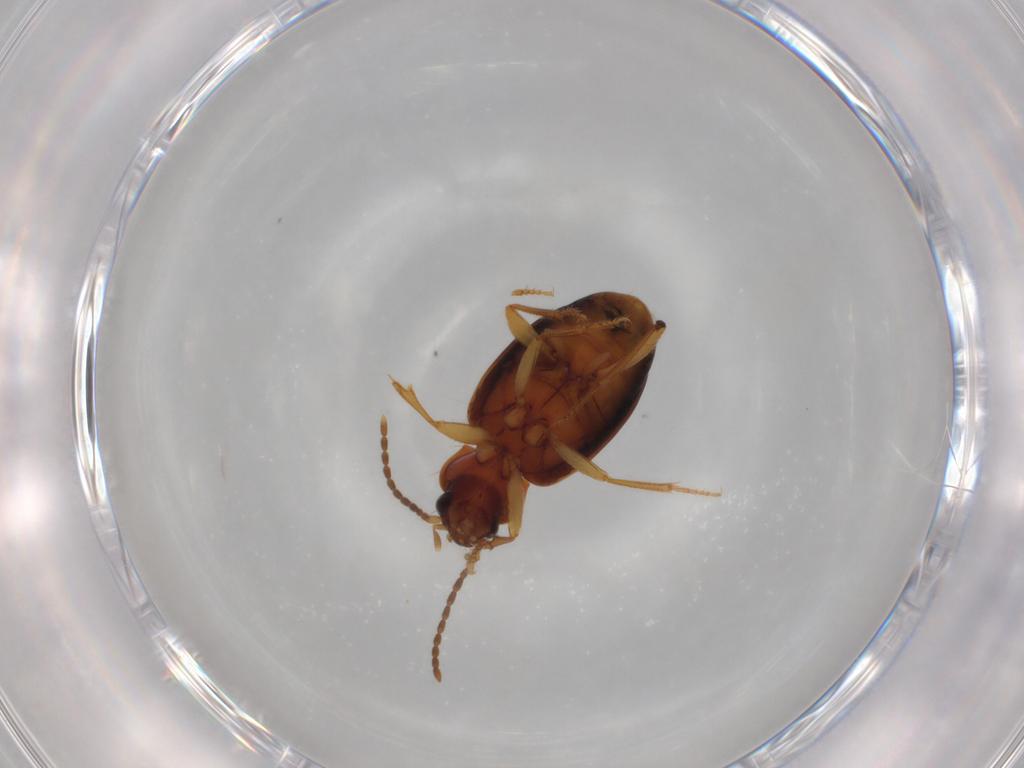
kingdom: Animalia
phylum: Arthropoda
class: Insecta
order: Coleoptera
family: Carabidae
